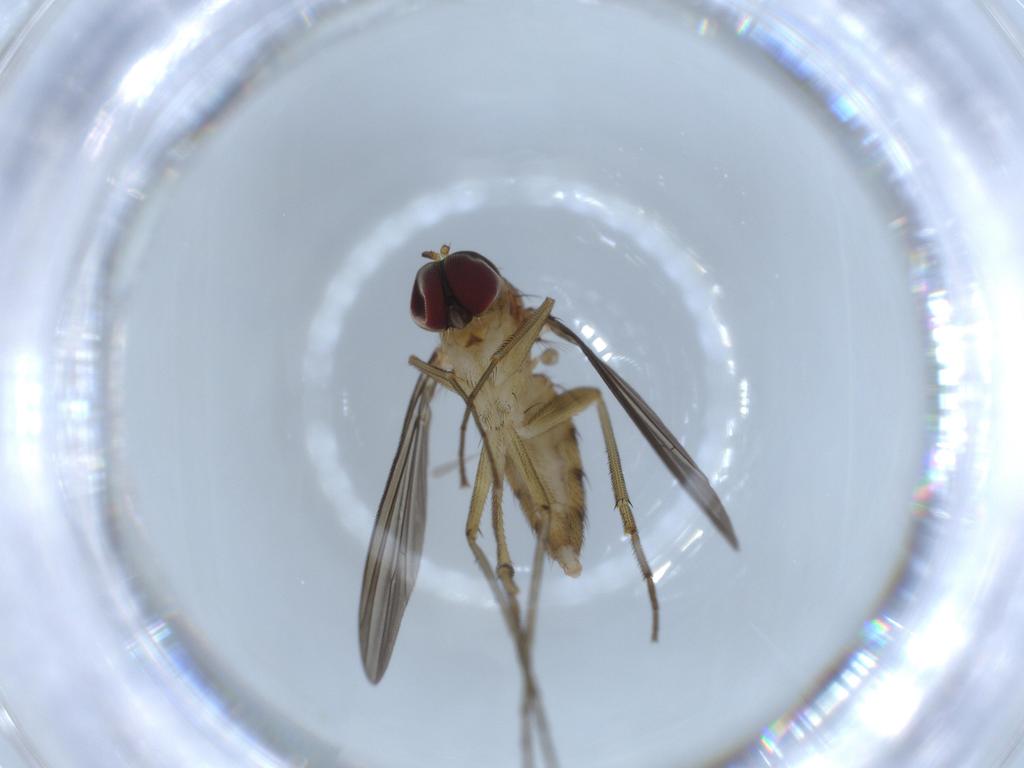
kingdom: Animalia
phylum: Arthropoda
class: Insecta
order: Diptera
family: Dolichopodidae
